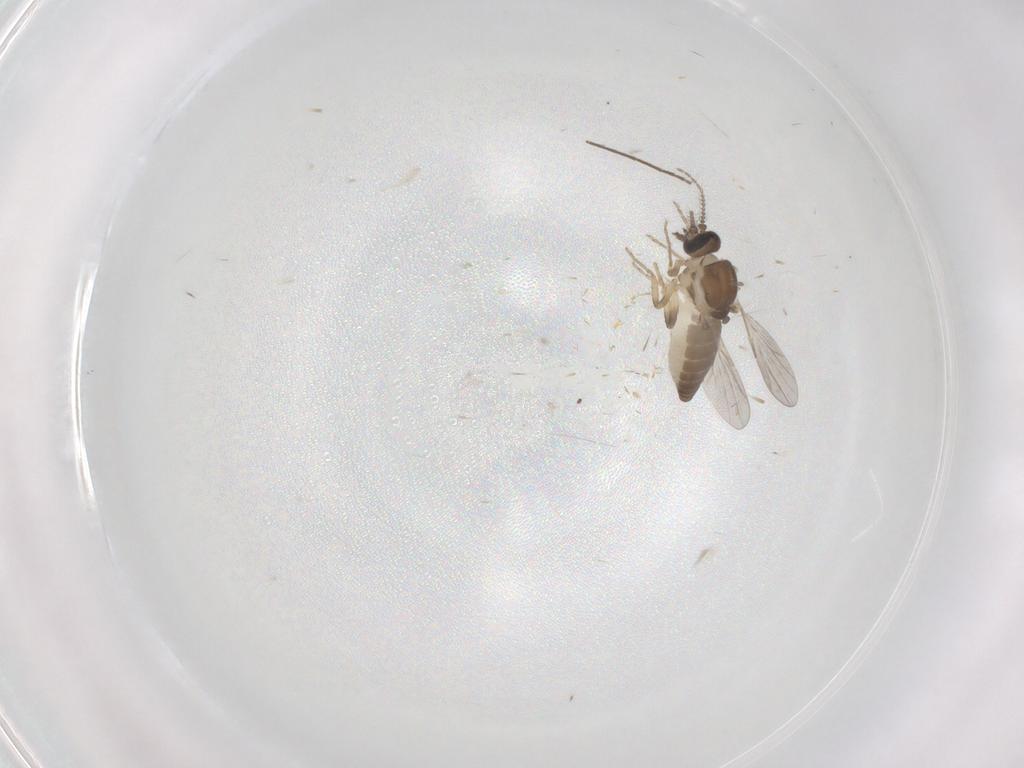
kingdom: Animalia
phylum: Arthropoda
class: Insecta
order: Diptera
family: Ceratopogonidae
